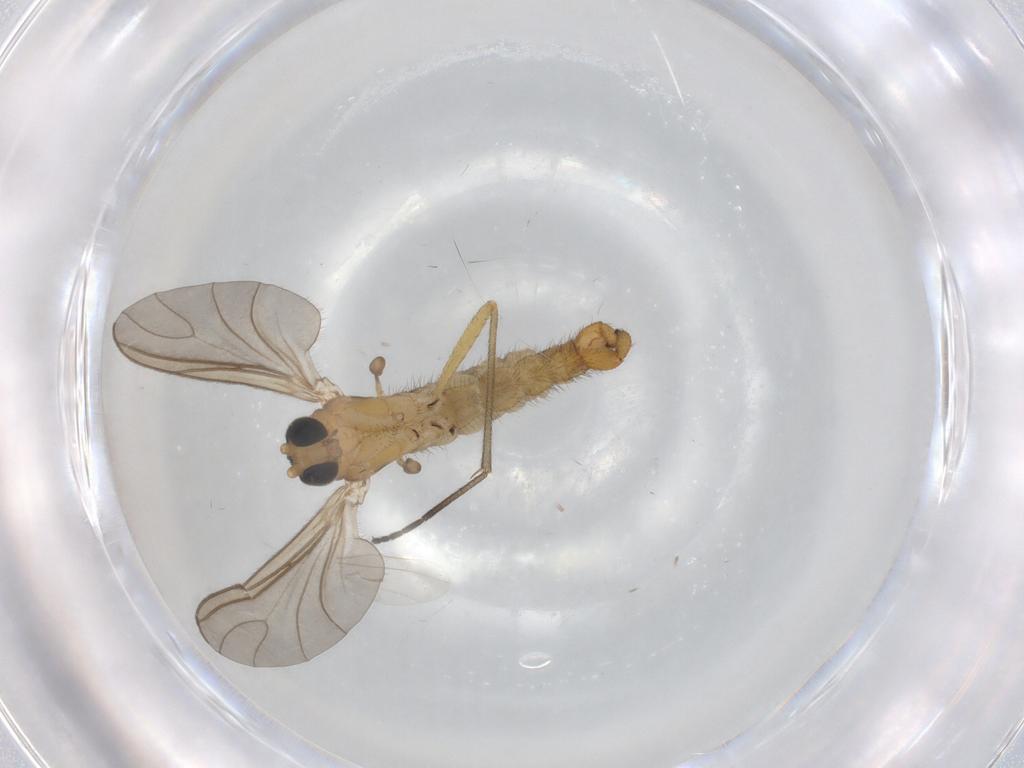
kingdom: Animalia
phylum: Arthropoda
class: Insecta
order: Diptera
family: Sciaridae
